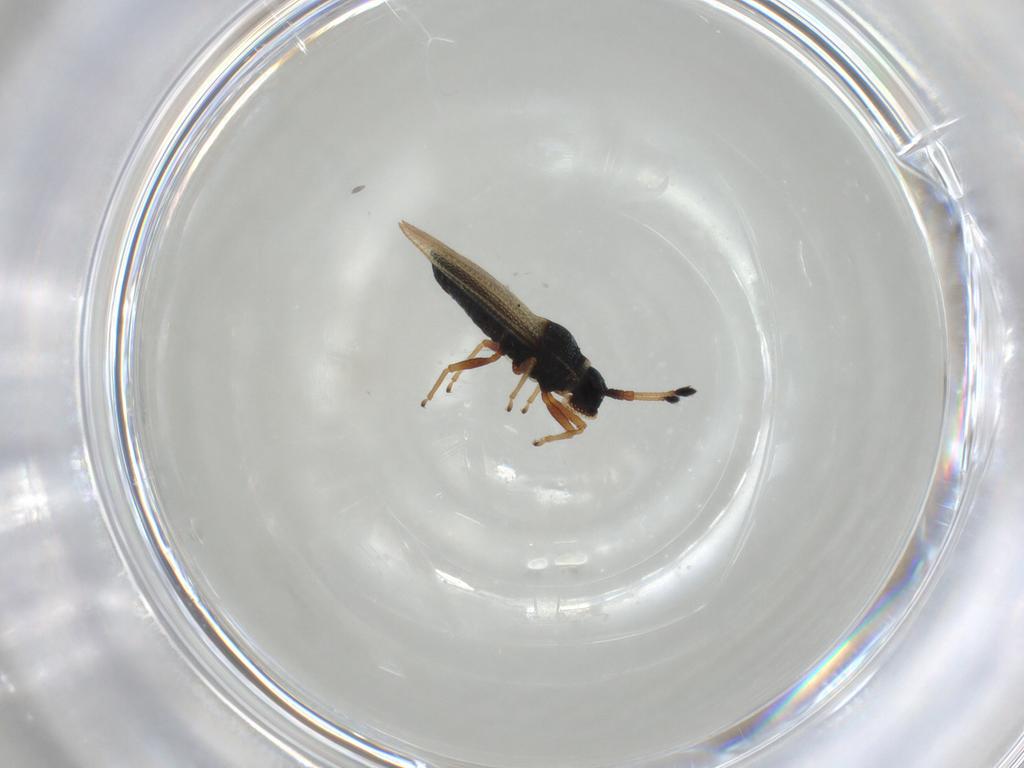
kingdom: Animalia
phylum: Arthropoda
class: Insecta
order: Hemiptera
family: Tingidae
